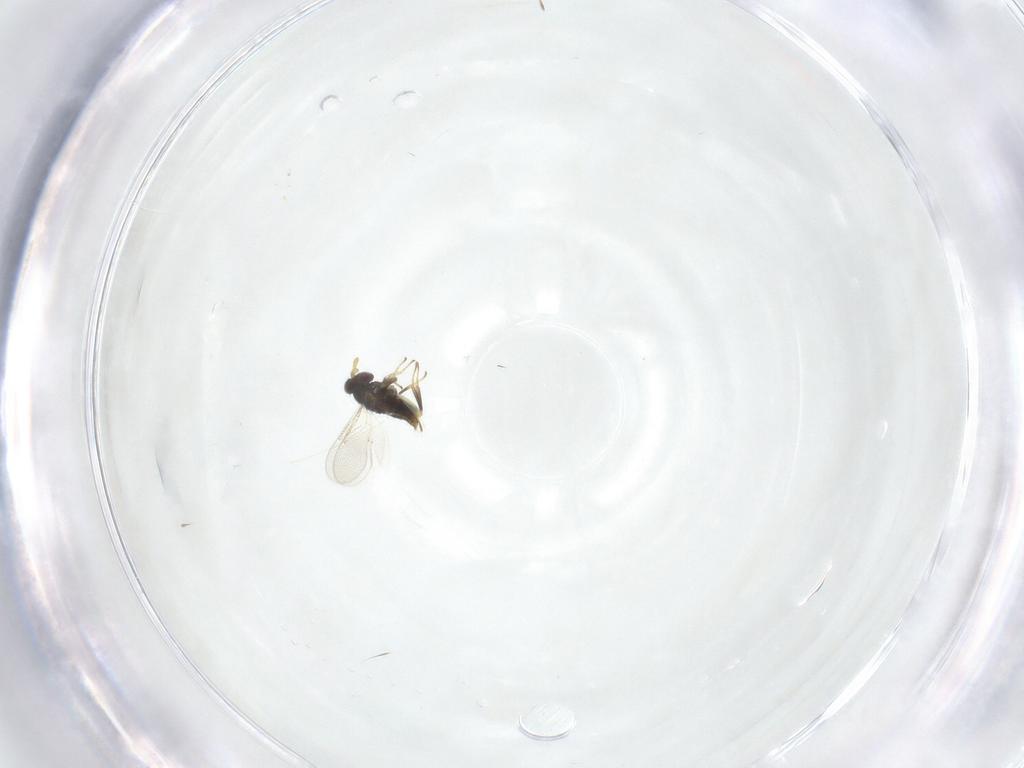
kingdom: Animalia
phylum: Arthropoda
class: Insecta
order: Hymenoptera
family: Aphelinidae
